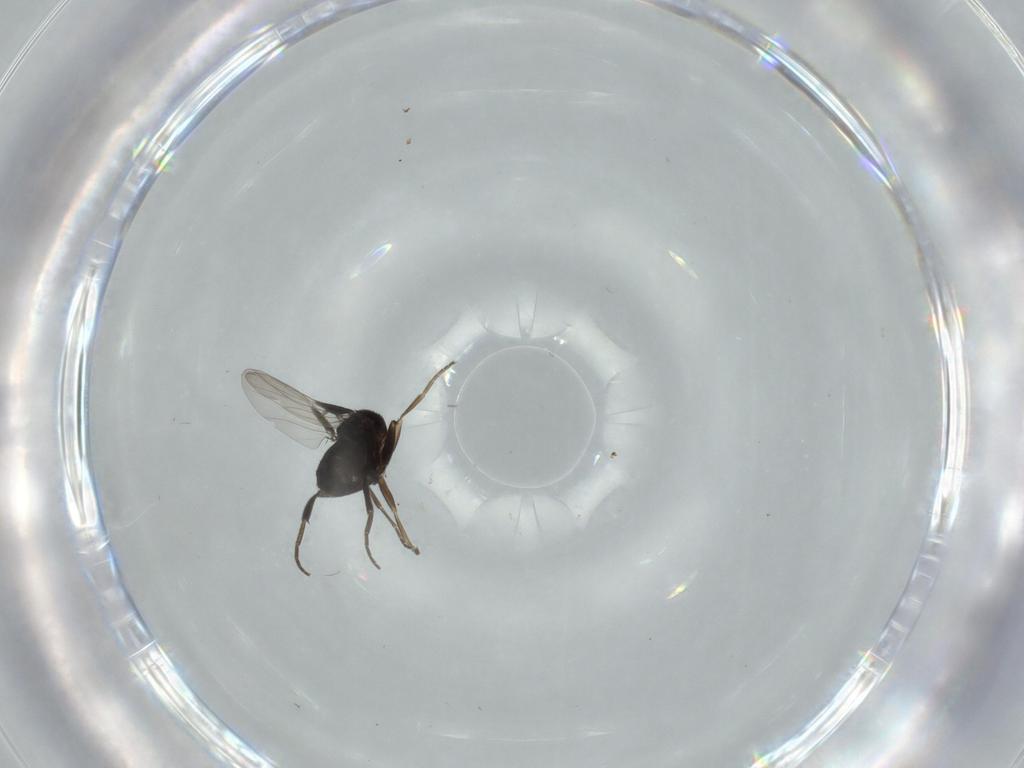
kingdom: Animalia
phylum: Arthropoda
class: Insecta
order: Diptera
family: Phoridae
